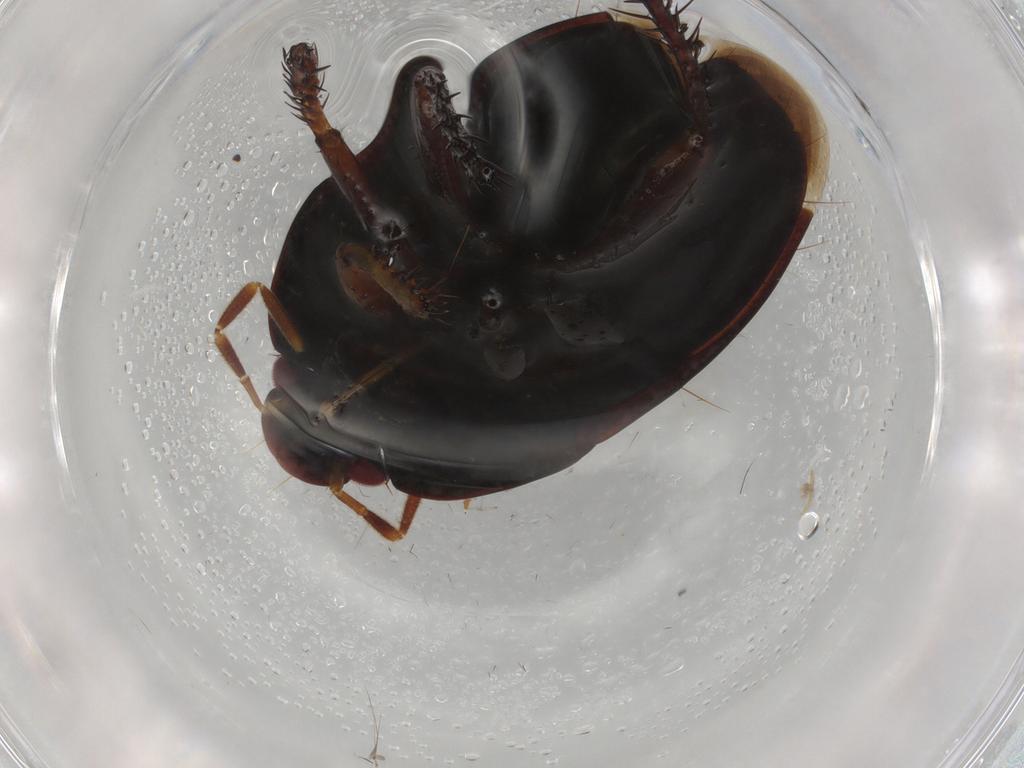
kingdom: Animalia
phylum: Arthropoda
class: Insecta
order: Hemiptera
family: Cydnidae
